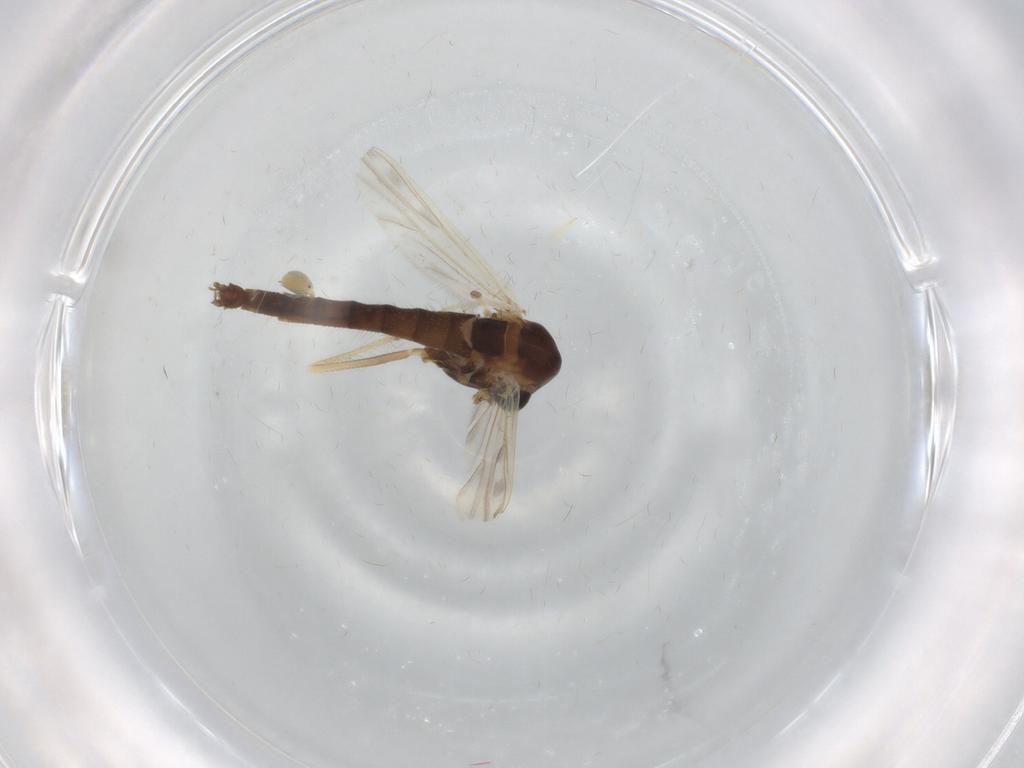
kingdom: Animalia
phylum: Arthropoda
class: Insecta
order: Diptera
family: Chironomidae
